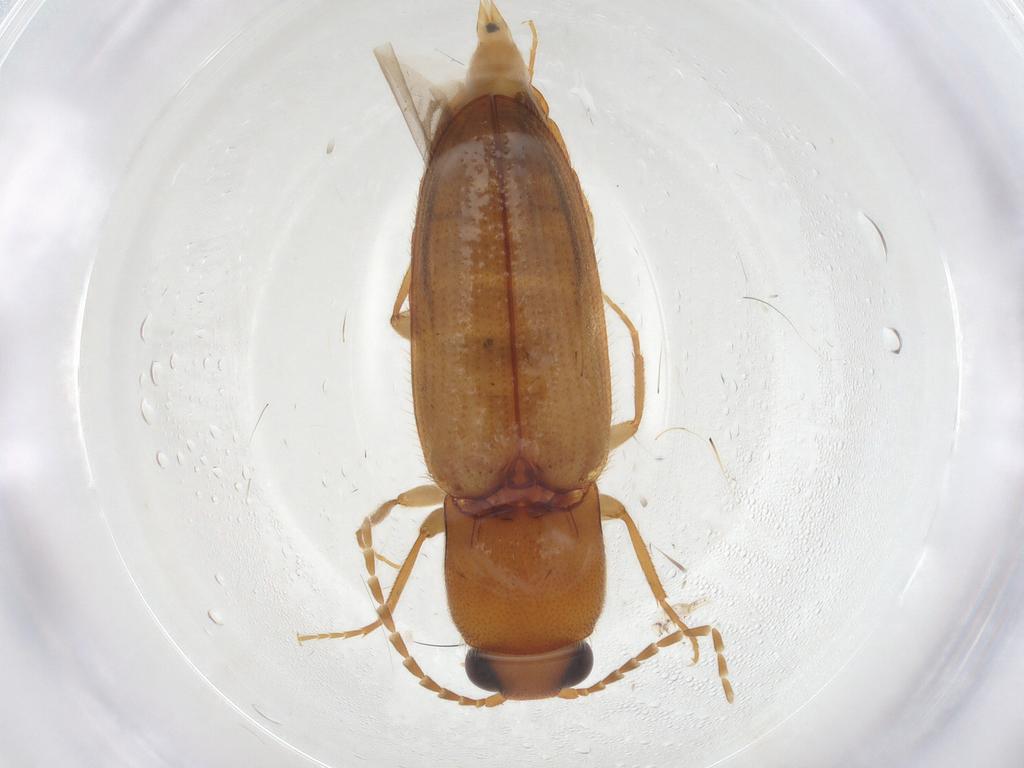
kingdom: Animalia
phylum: Arthropoda
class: Insecta
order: Coleoptera
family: Elateridae
